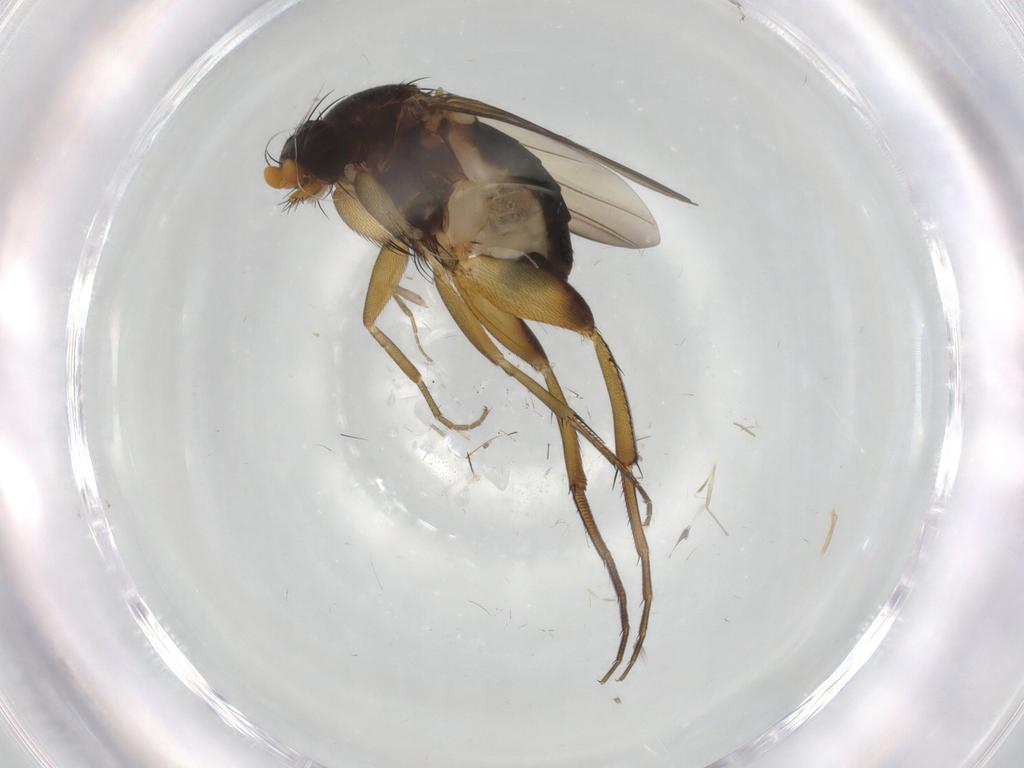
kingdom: Animalia
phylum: Arthropoda
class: Insecta
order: Diptera
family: Phoridae
